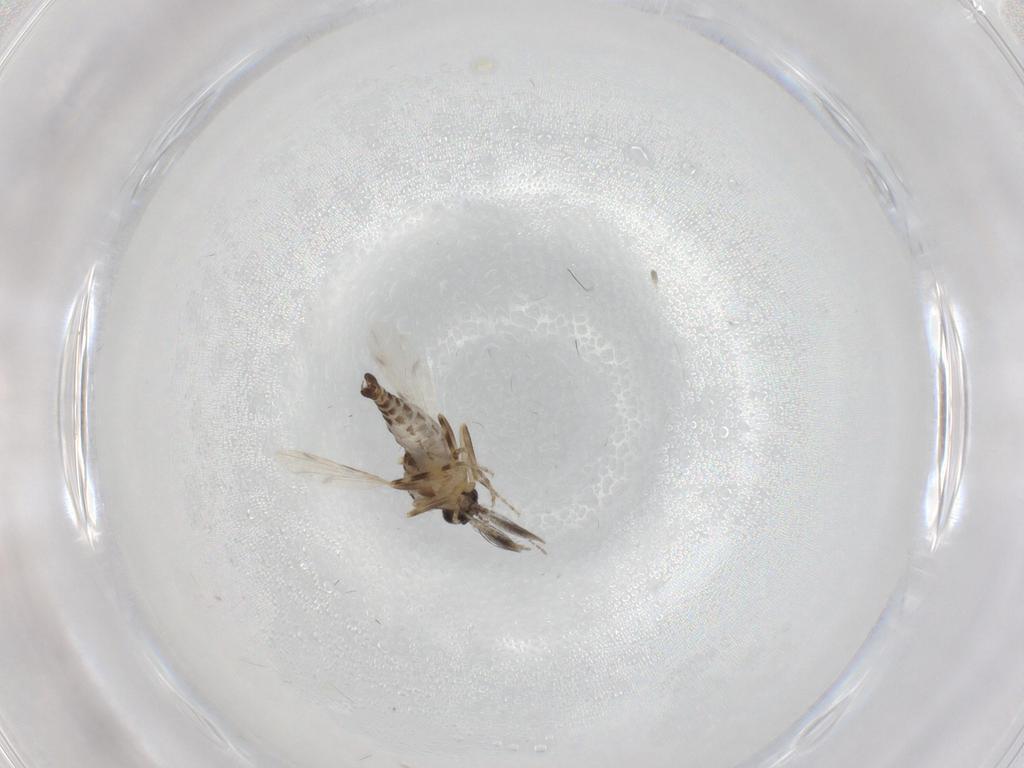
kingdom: Animalia
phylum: Arthropoda
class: Insecta
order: Diptera
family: Ceratopogonidae
